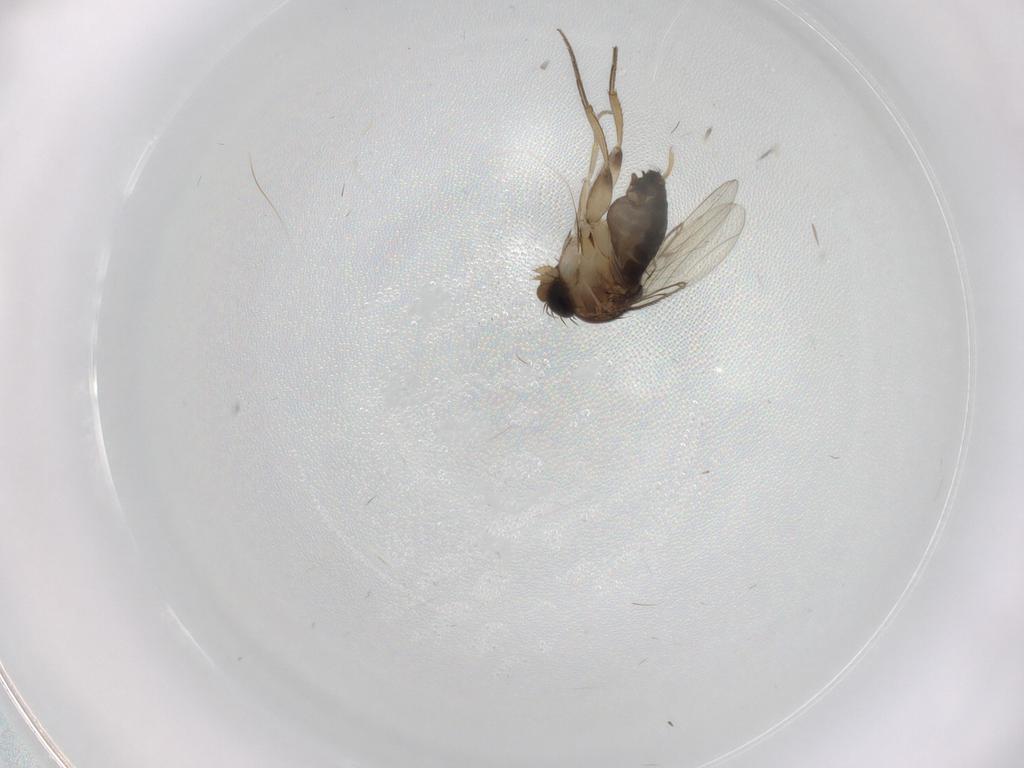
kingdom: Animalia
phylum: Arthropoda
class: Insecta
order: Diptera
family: Phoridae
